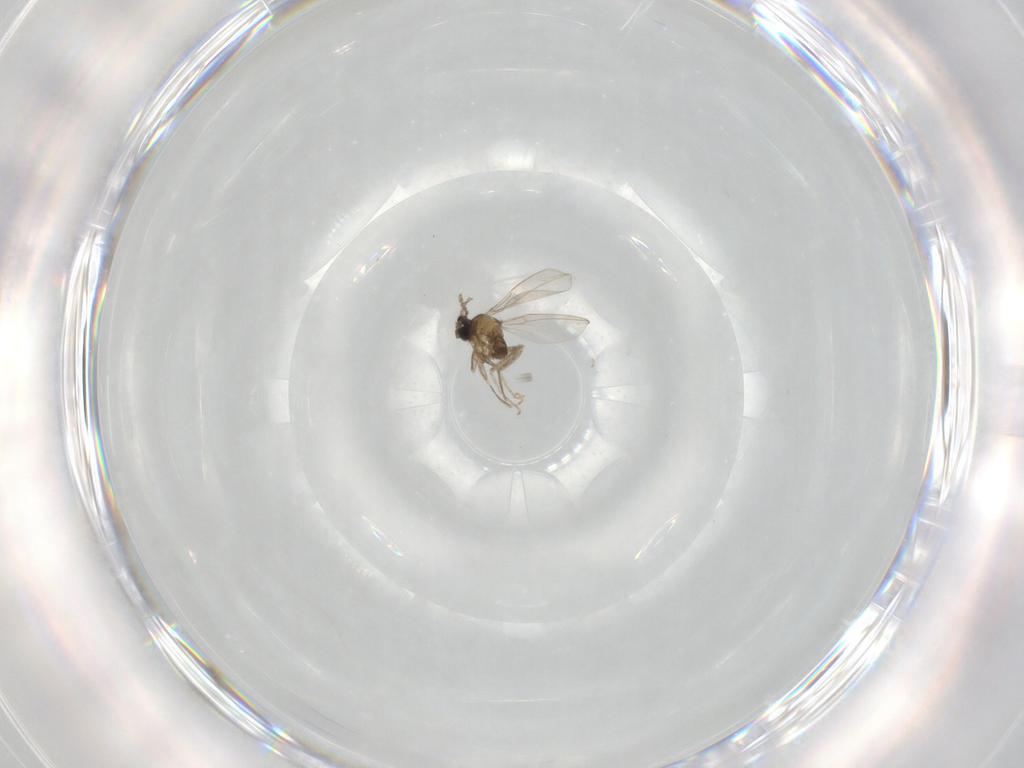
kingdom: Animalia
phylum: Arthropoda
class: Insecta
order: Diptera
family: Cecidomyiidae
